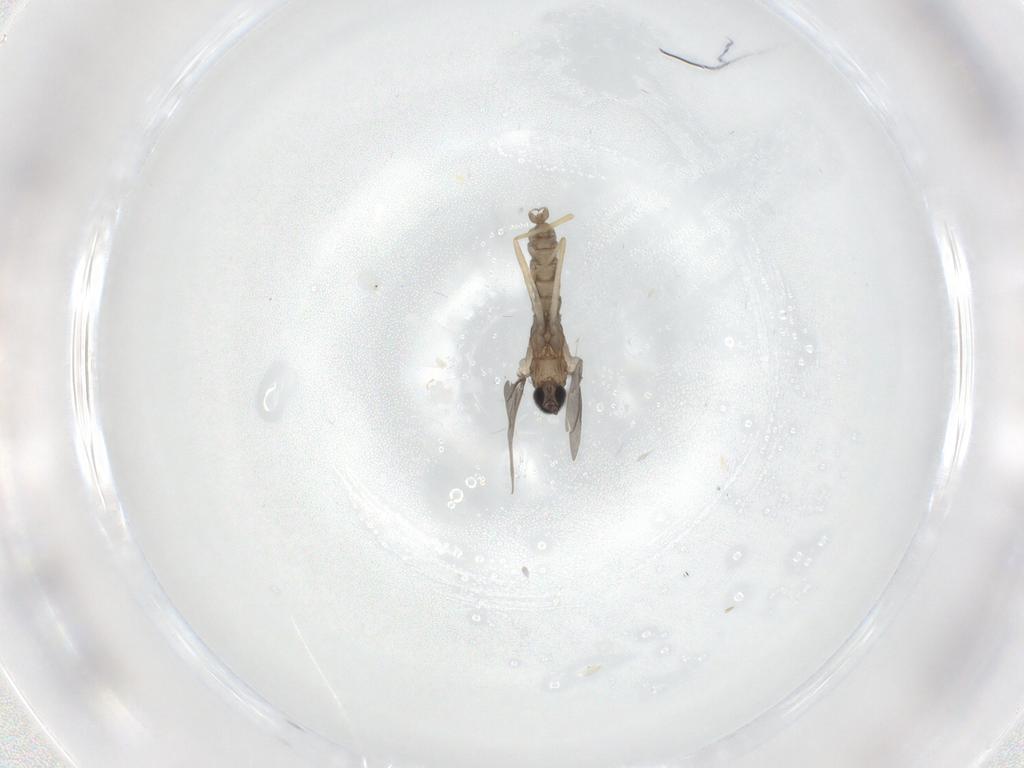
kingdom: Animalia
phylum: Arthropoda
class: Insecta
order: Diptera
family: Cecidomyiidae
